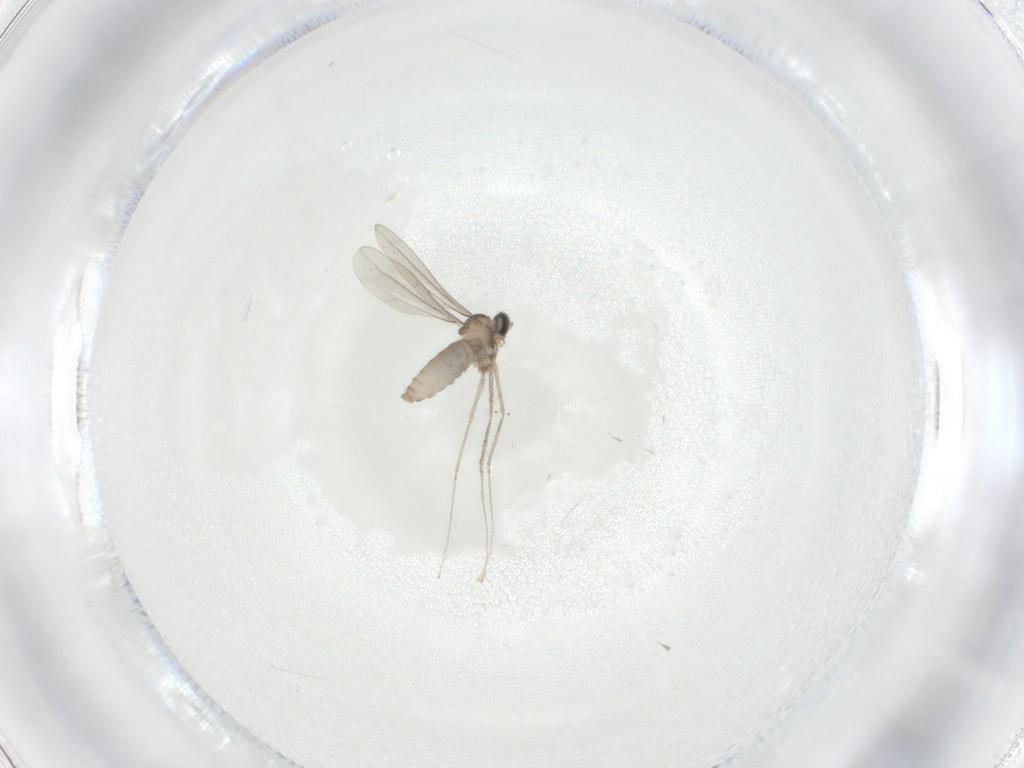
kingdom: Animalia
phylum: Arthropoda
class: Insecta
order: Diptera
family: Cecidomyiidae
